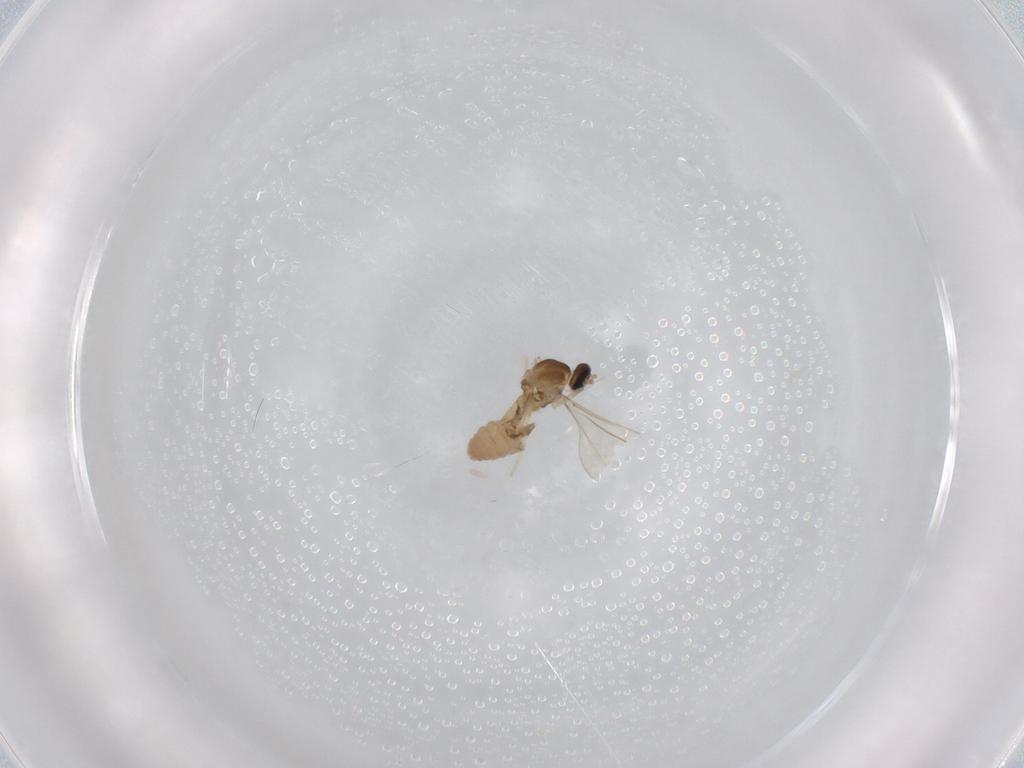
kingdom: Animalia
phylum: Arthropoda
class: Insecta
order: Diptera
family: Cecidomyiidae
